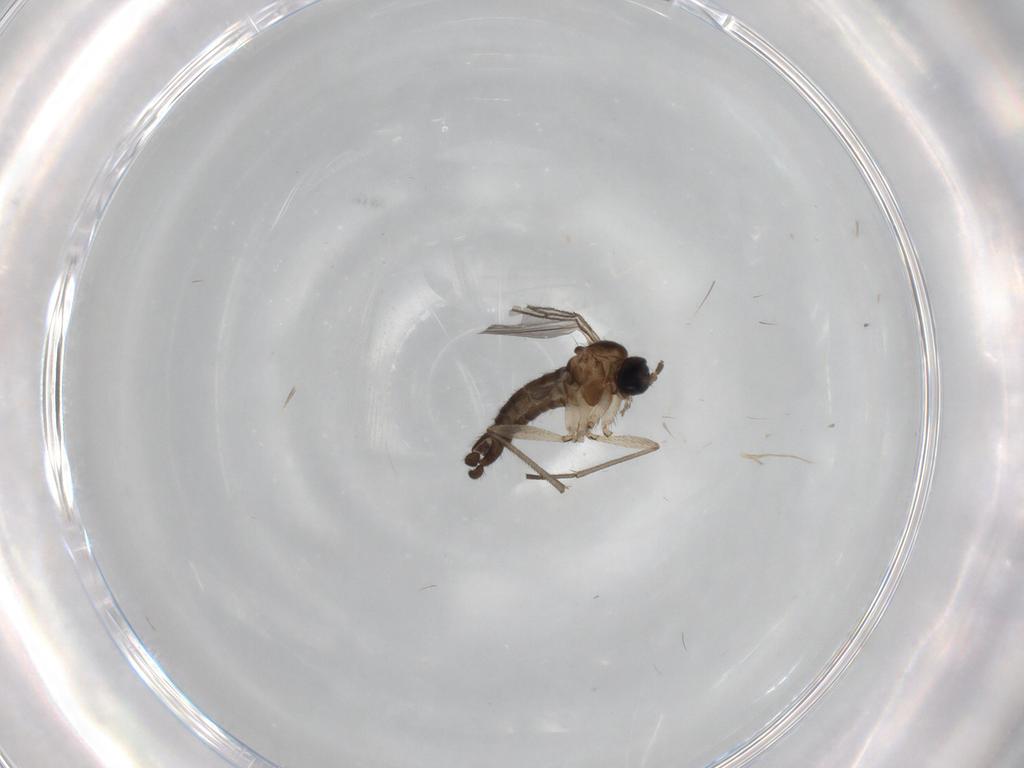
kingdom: Animalia
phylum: Arthropoda
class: Insecta
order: Diptera
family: Sciaridae
